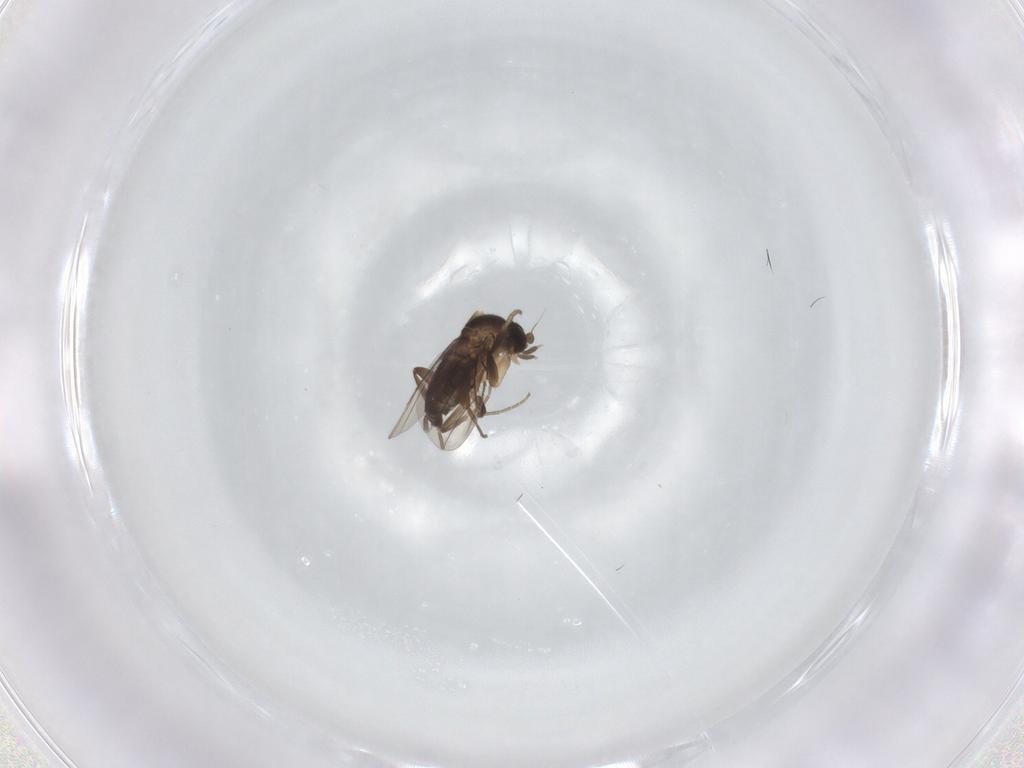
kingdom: Animalia
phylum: Arthropoda
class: Insecta
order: Diptera
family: Phoridae
